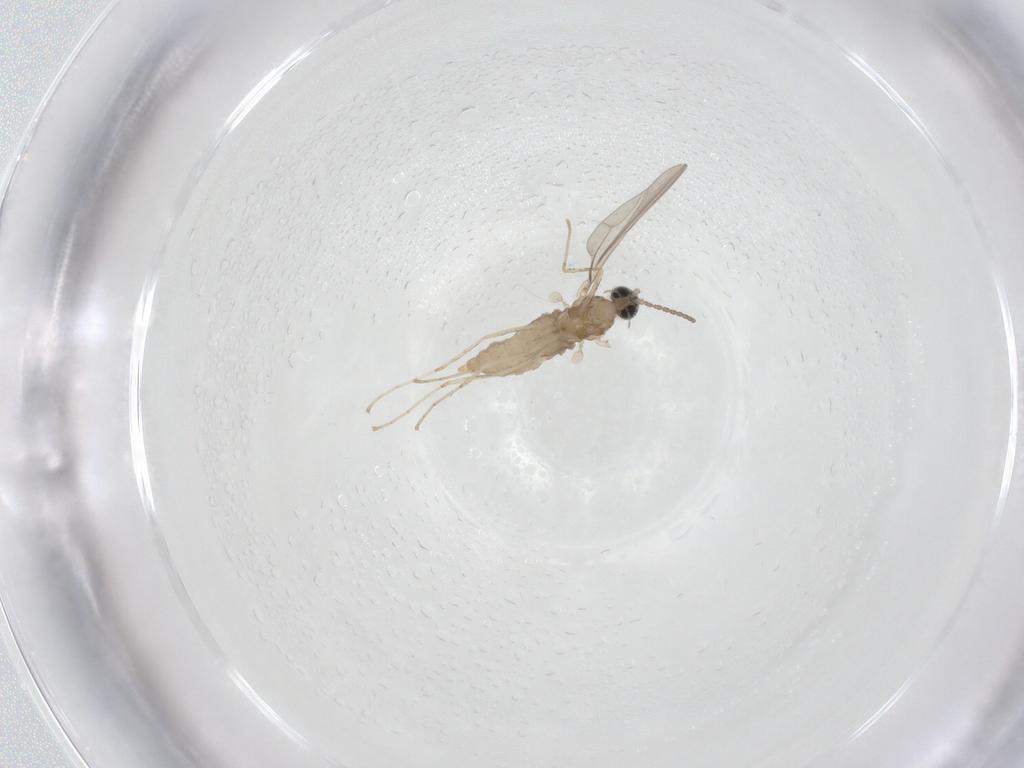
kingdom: Animalia
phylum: Arthropoda
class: Insecta
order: Diptera
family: Cecidomyiidae
